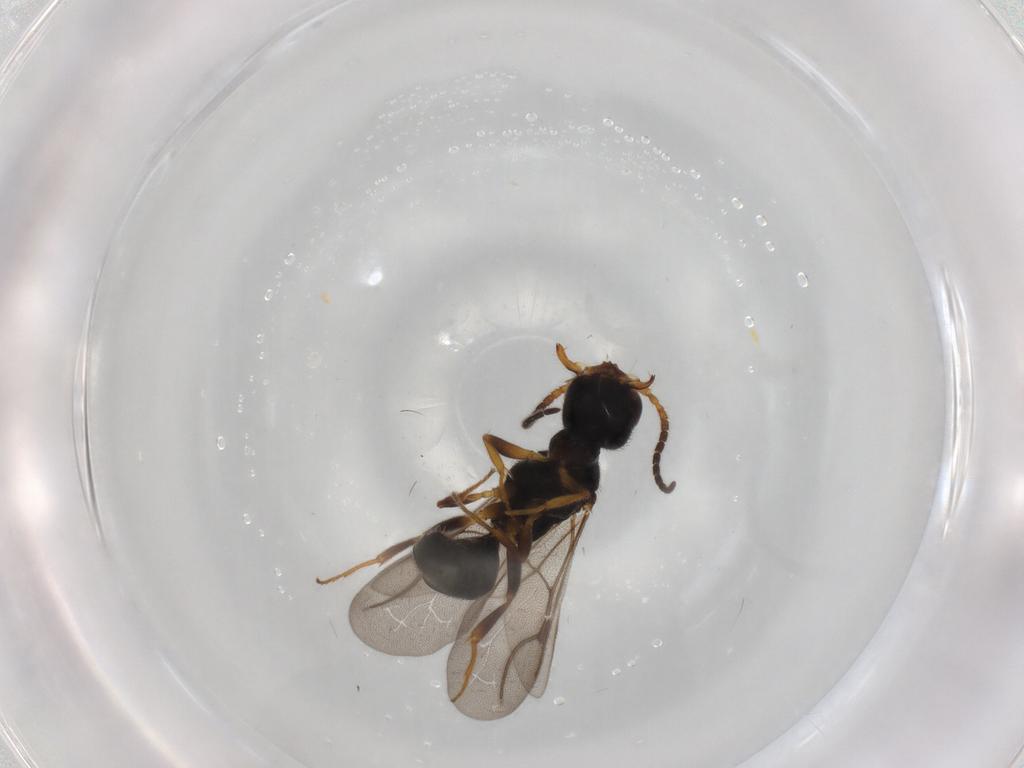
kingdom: Animalia
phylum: Arthropoda
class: Insecta
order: Hymenoptera
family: Bethylidae
